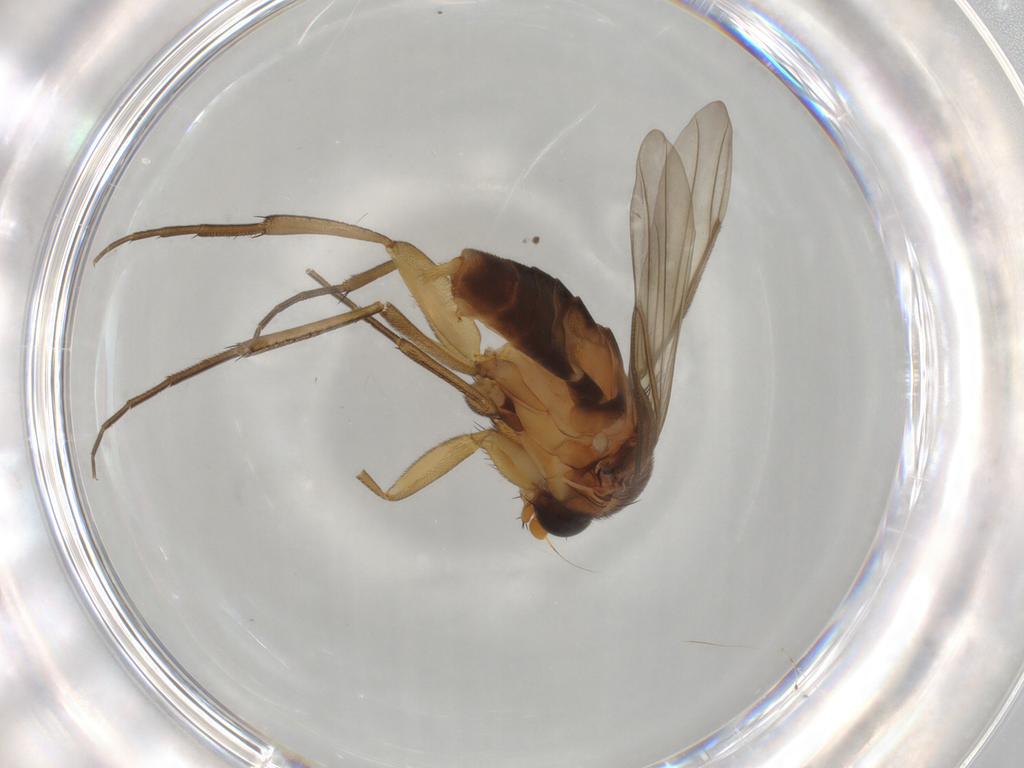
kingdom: Animalia
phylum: Arthropoda
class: Insecta
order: Diptera
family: Phoridae
